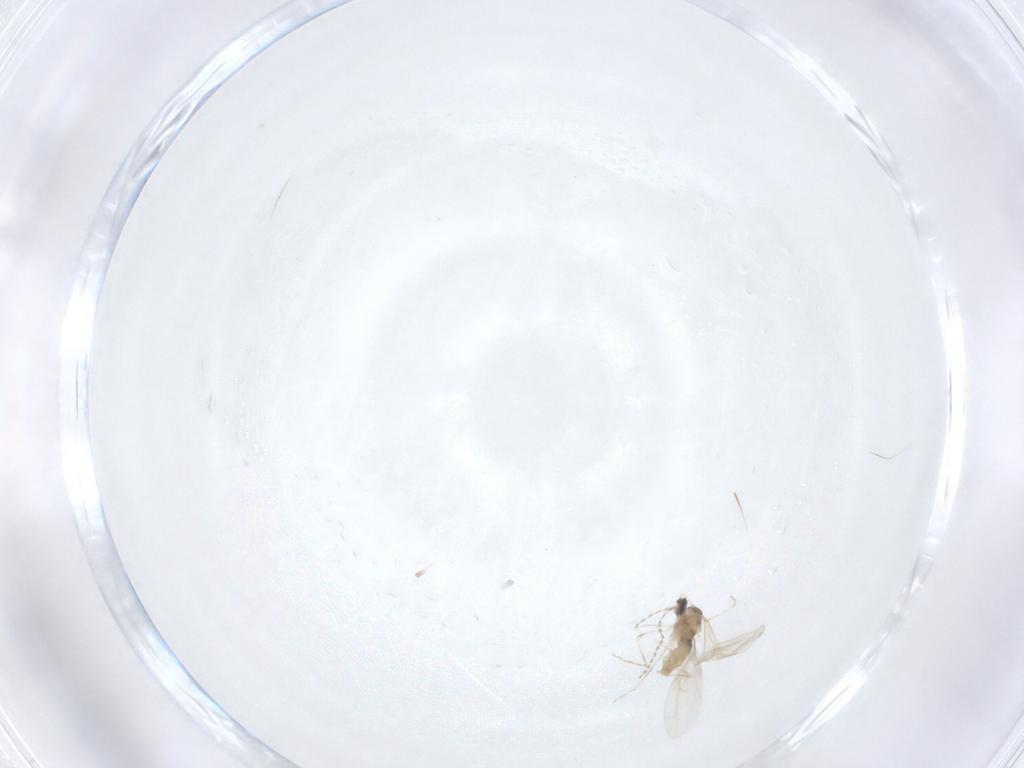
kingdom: Animalia
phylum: Arthropoda
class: Insecta
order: Diptera
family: Ceratopogonidae
